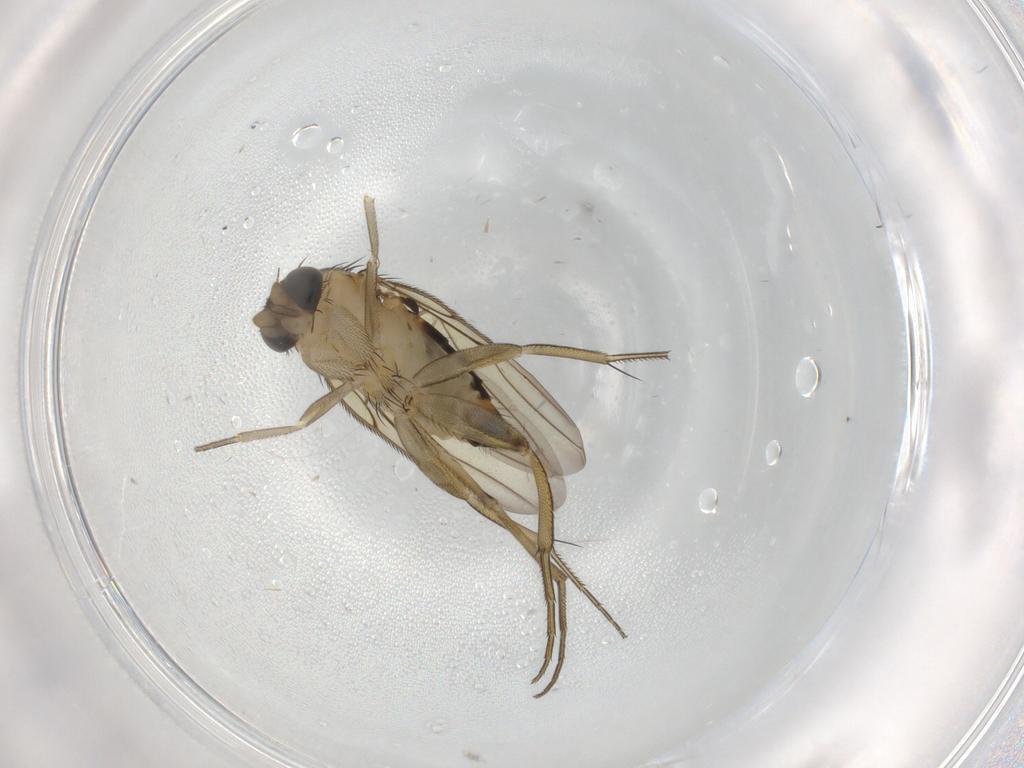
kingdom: Animalia
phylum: Arthropoda
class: Insecta
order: Diptera
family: Phoridae
